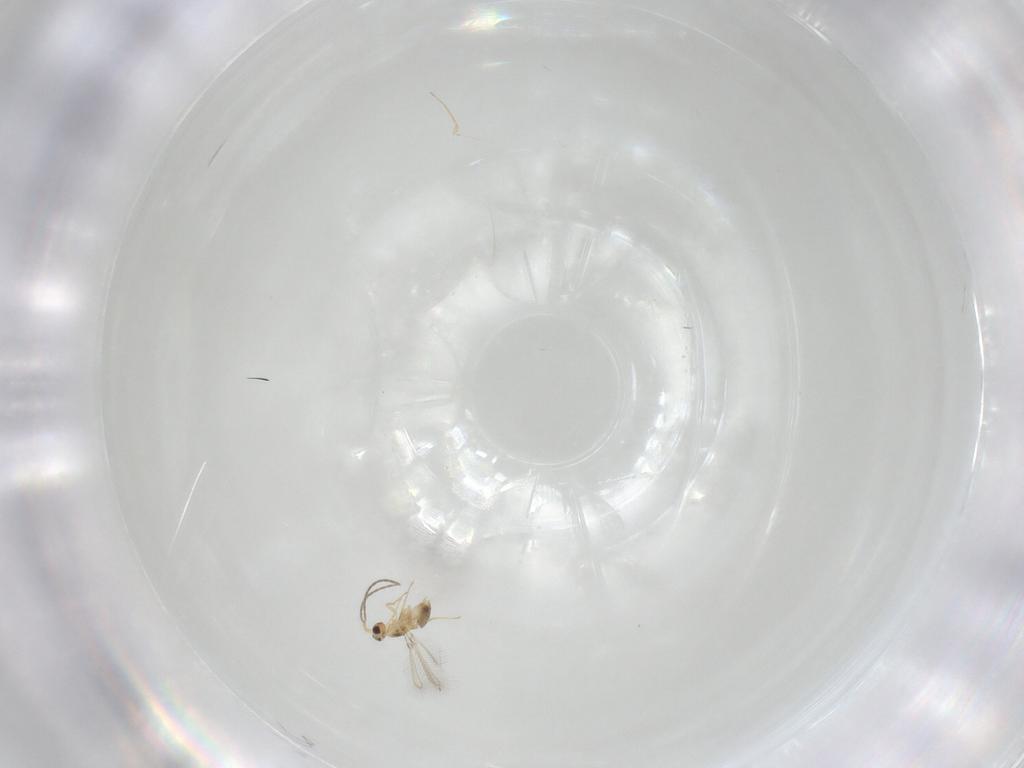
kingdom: Animalia
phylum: Arthropoda
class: Insecta
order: Hymenoptera
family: Mymaridae
